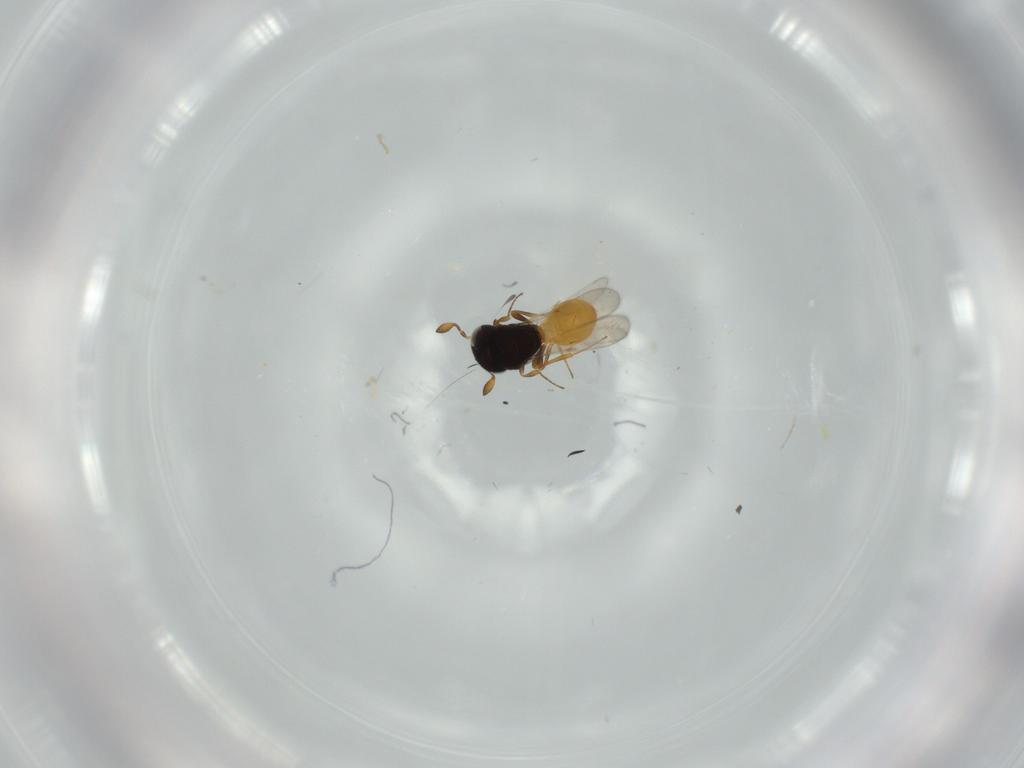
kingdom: Animalia
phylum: Arthropoda
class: Insecta
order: Hymenoptera
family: Scelionidae
